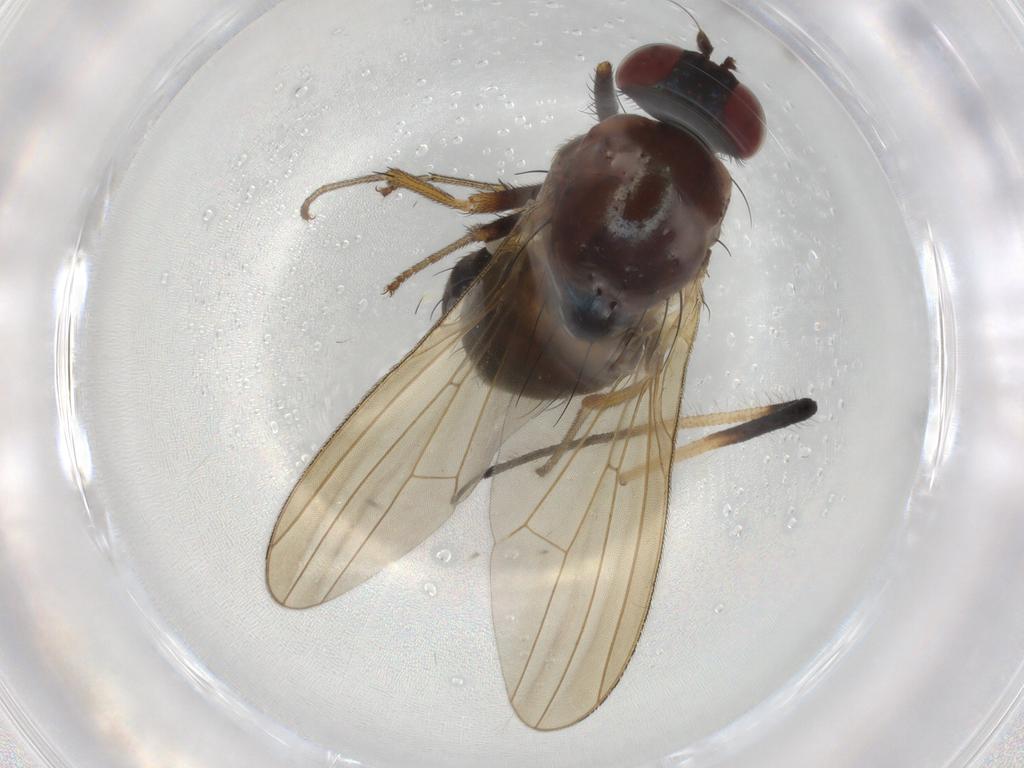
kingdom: Animalia
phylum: Arthropoda
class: Insecta
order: Diptera
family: Lauxaniidae
